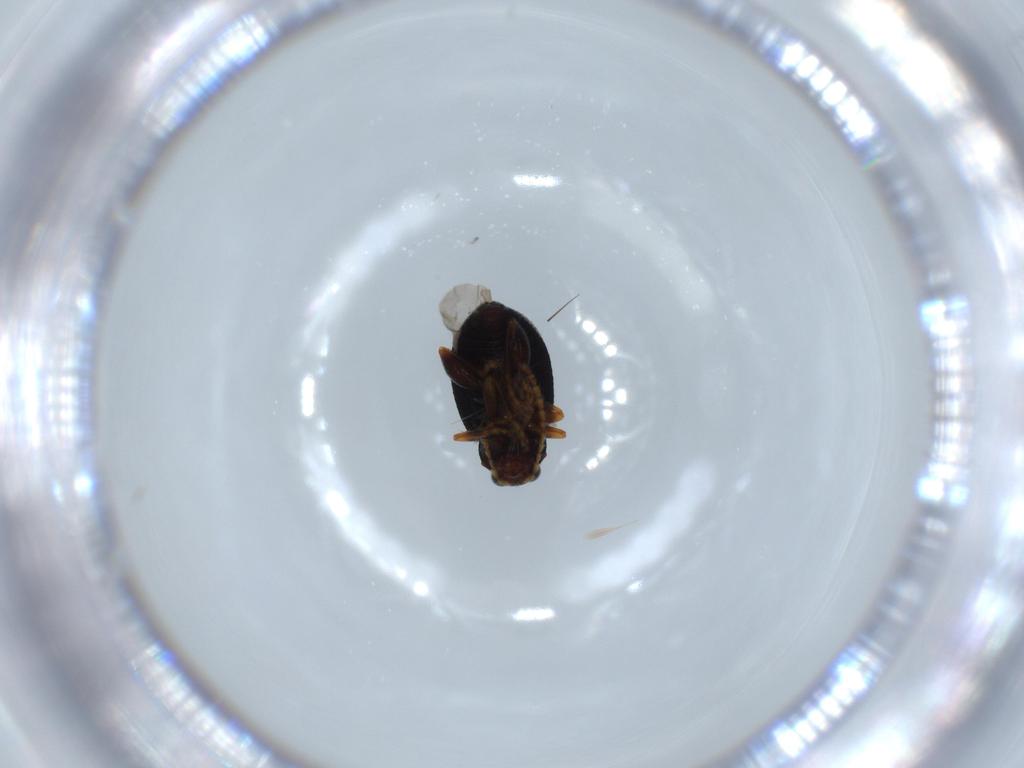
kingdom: Animalia
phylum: Arthropoda
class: Insecta
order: Coleoptera
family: Chrysomelidae
